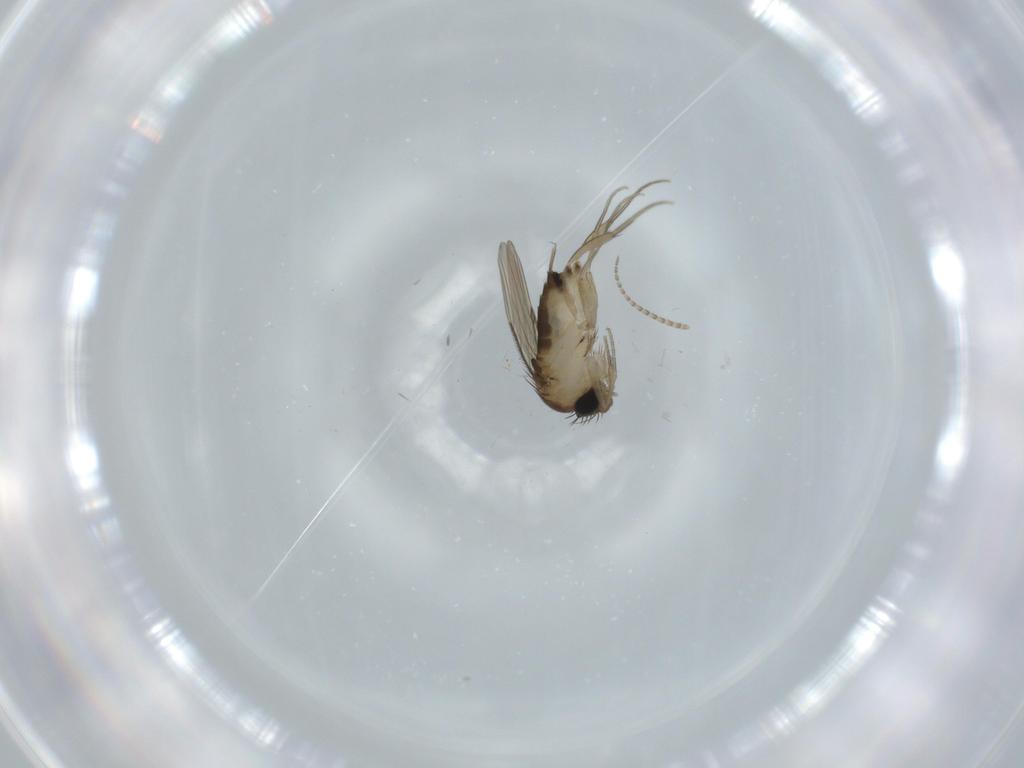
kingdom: Animalia
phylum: Arthropoda
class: Insecta
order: Diptera
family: Phoridae
